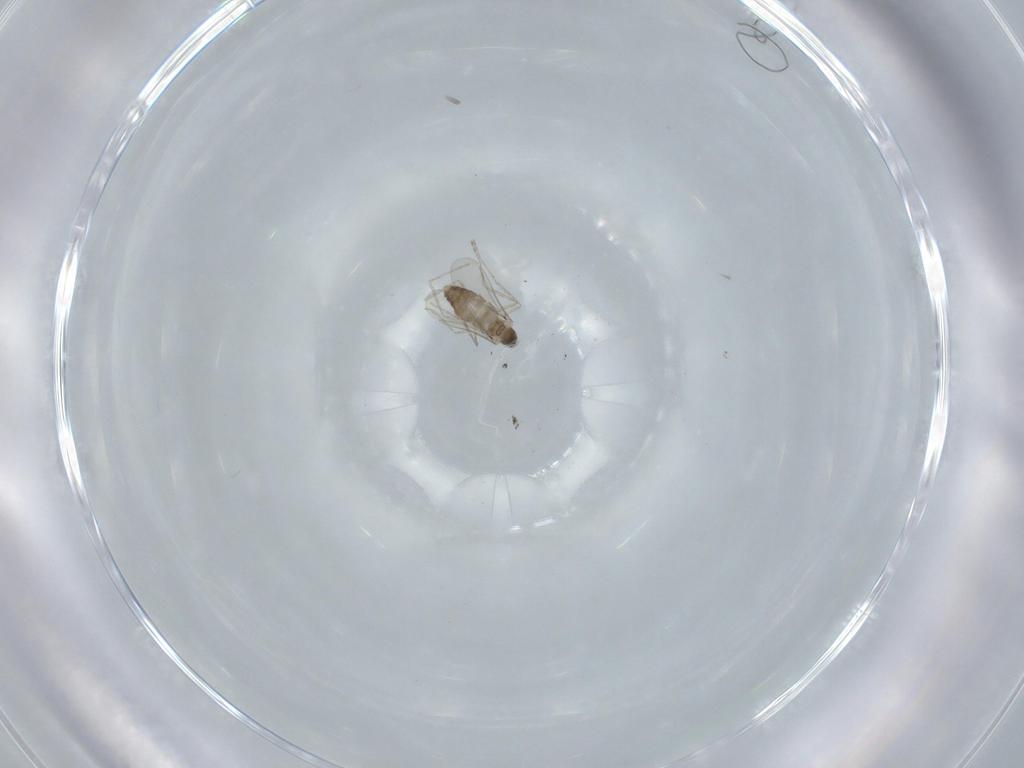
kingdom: Animalia
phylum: Arthropoda
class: Insecta
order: Diptera
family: Cecidomyiidae
